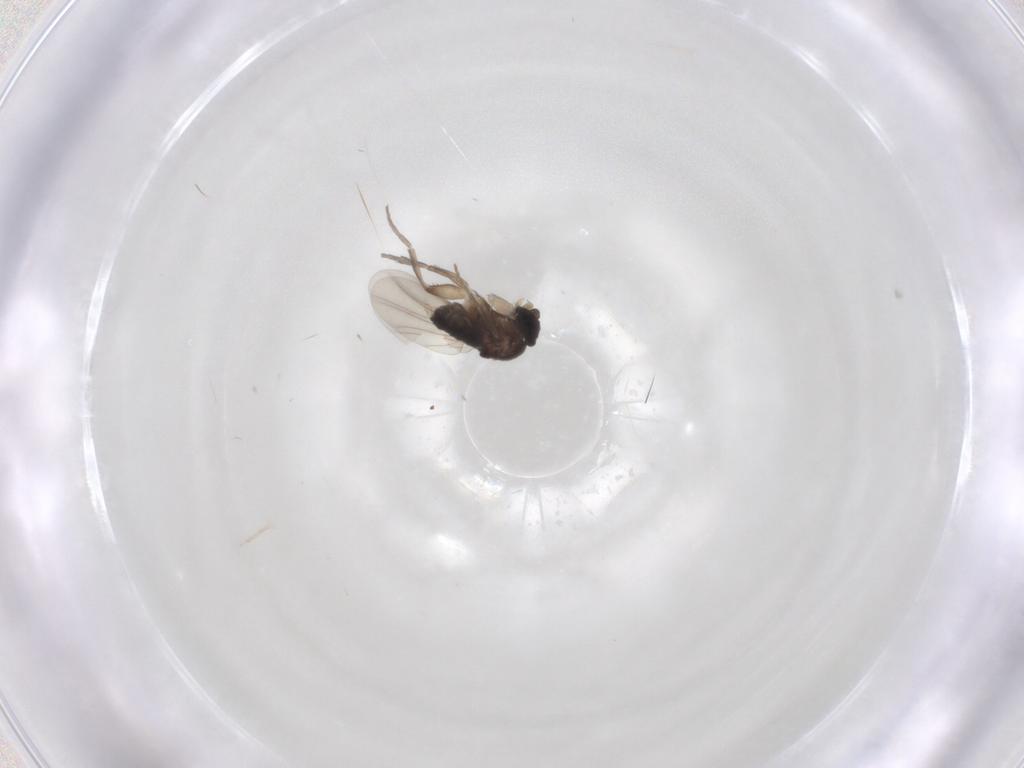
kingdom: Animalia
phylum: Arthropoda
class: Insecta
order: Diptera
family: Phoridae
